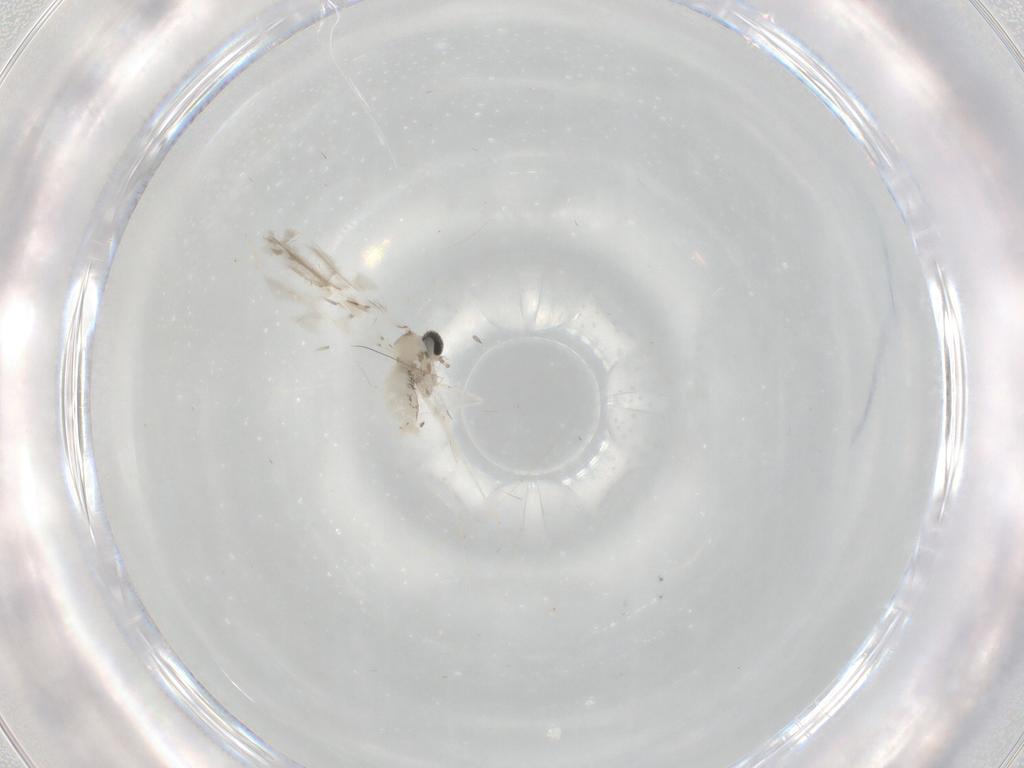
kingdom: Animalia
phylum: Arthropoda
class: Insecta
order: Diptera
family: Cecidomyiidae
